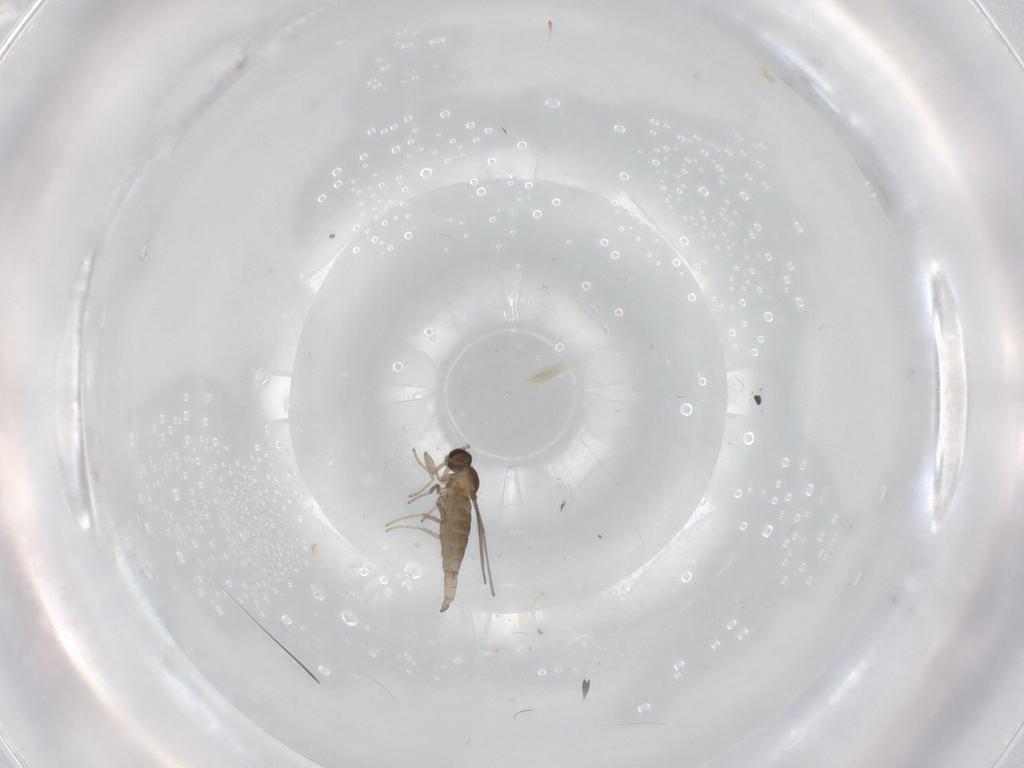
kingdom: Animalia
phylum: Arthropoda
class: Insecta
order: Diptera
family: Cecidomyiidae
